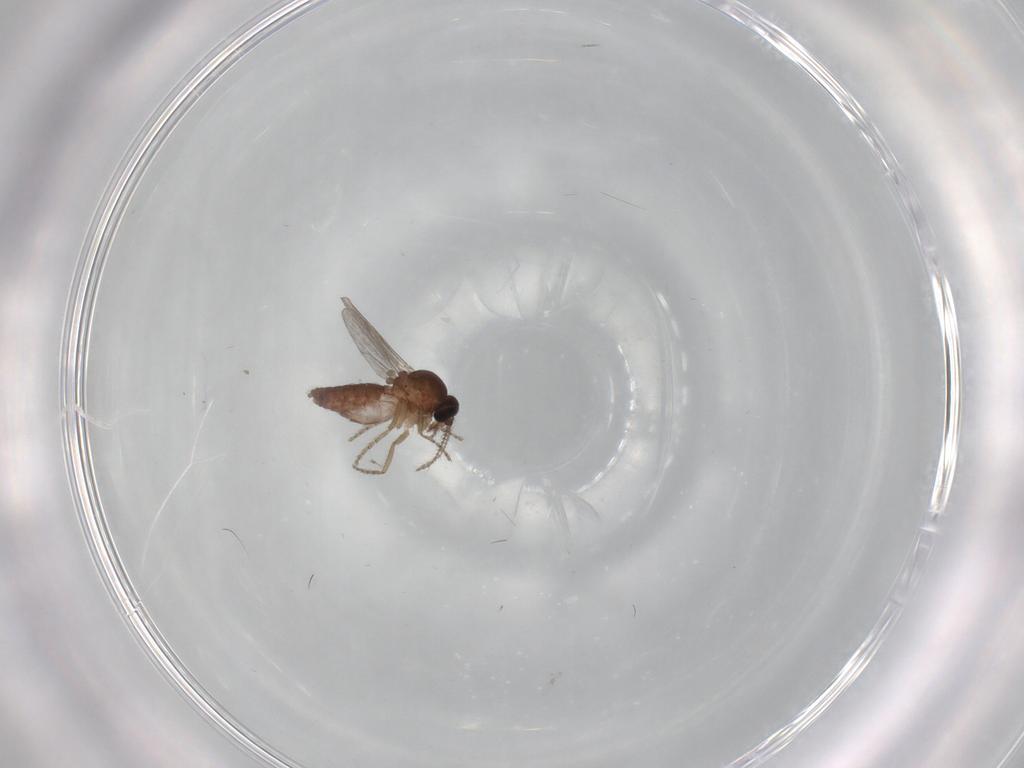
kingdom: Animalia
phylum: Arthropoda
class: Insecta
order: Diptera
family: Ceratopogonidae
